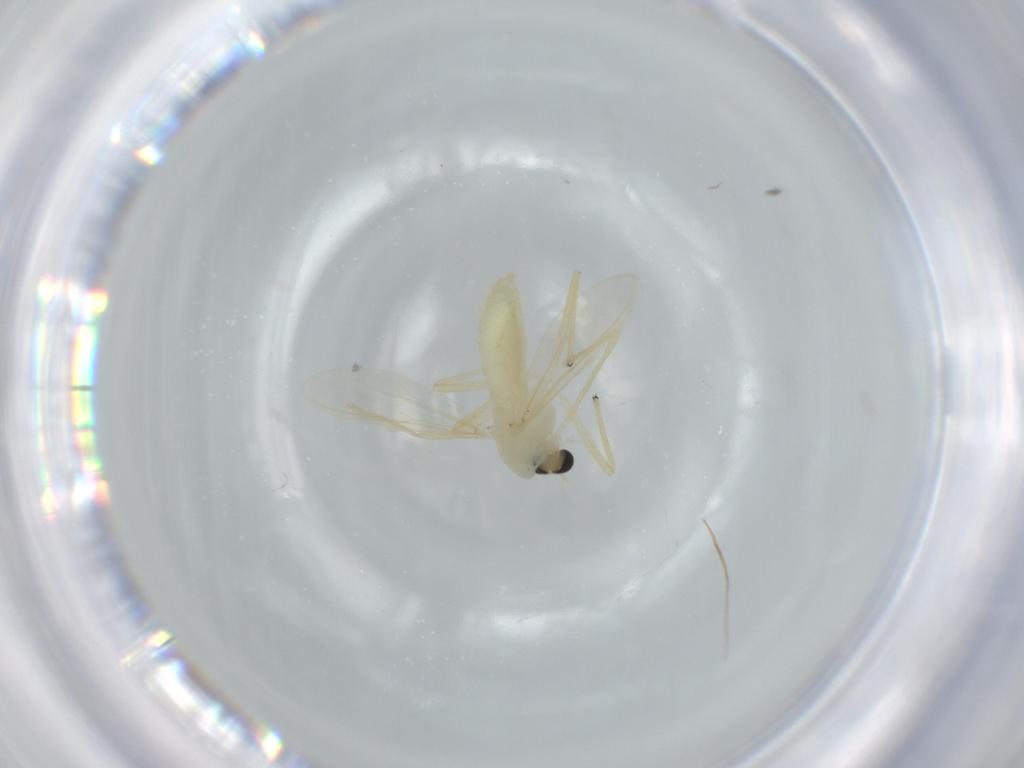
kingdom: Animalia
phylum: Arthropoda
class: Insecta
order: Diptera
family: Chironomidae
